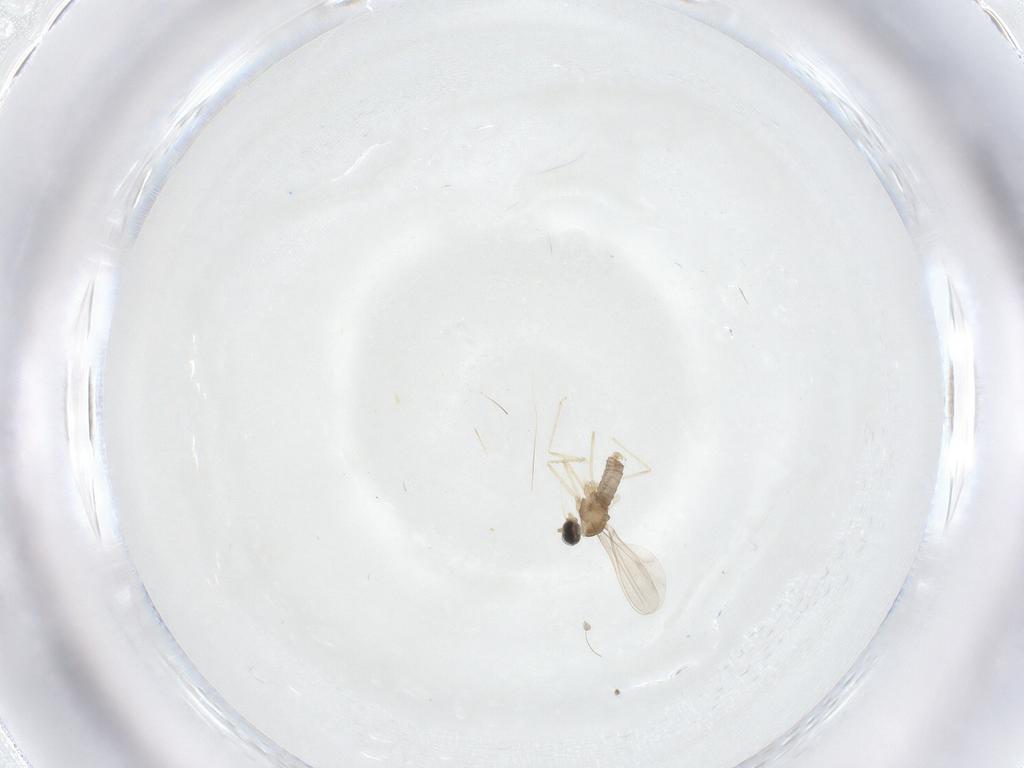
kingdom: Animalia
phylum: Arthropoda
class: Insecta
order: Diptera
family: Cecidomyiidae
